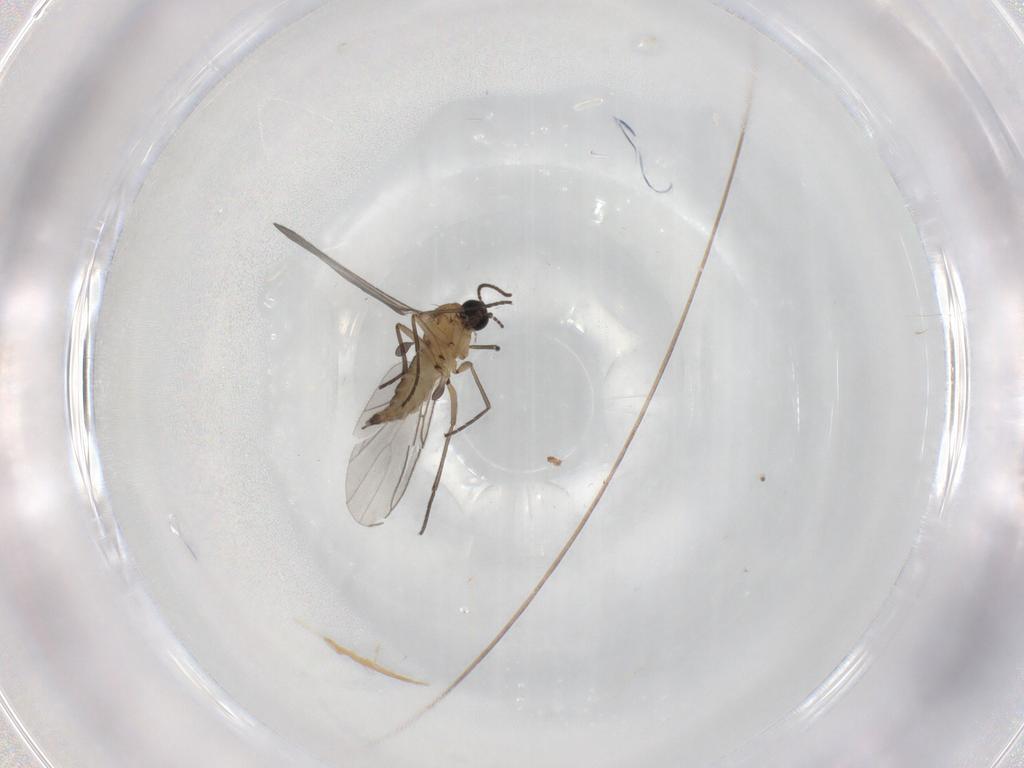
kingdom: Animalia
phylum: Arthropoda
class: Insecta
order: Diptera
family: Sciaridae
